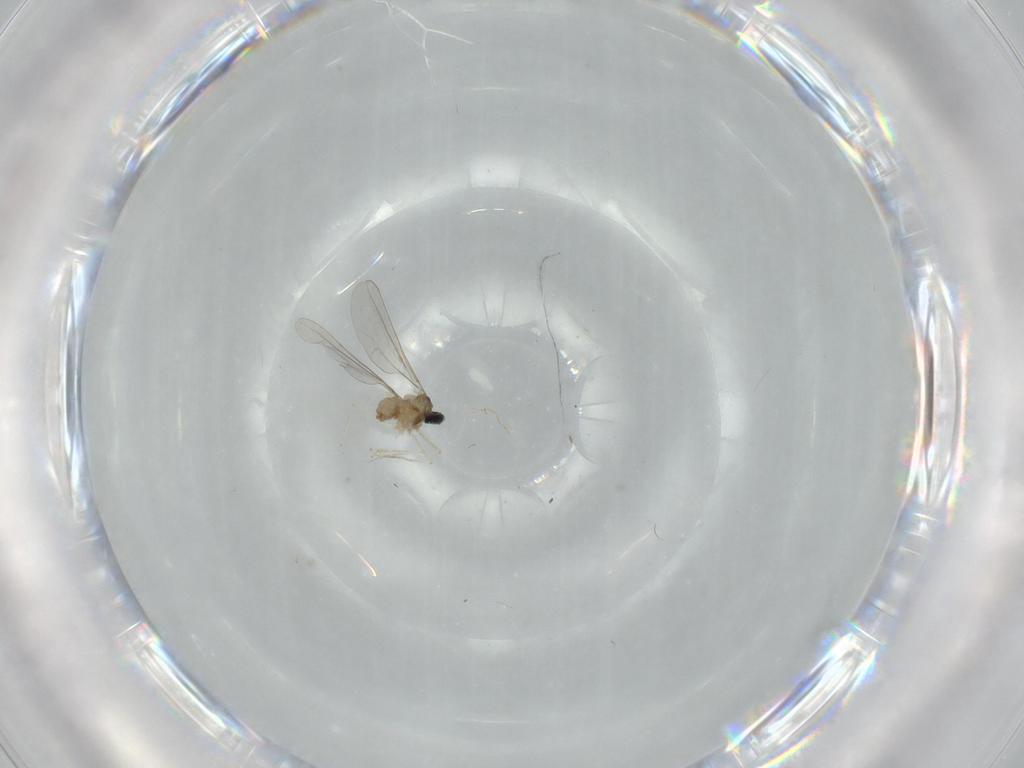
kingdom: Animalia
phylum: Arthropoda
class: Insecta
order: Diptera
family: Cecidomyiidae
